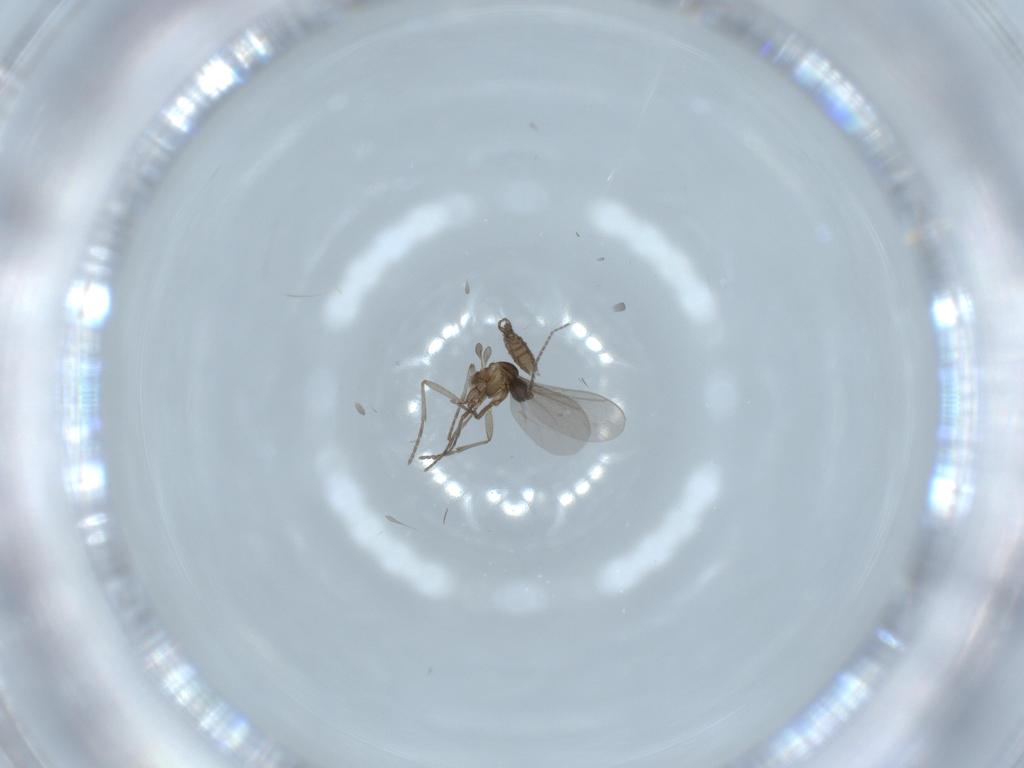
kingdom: Animalia
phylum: Arthropoda
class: Insecta
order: Diptera
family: Sciaridae
